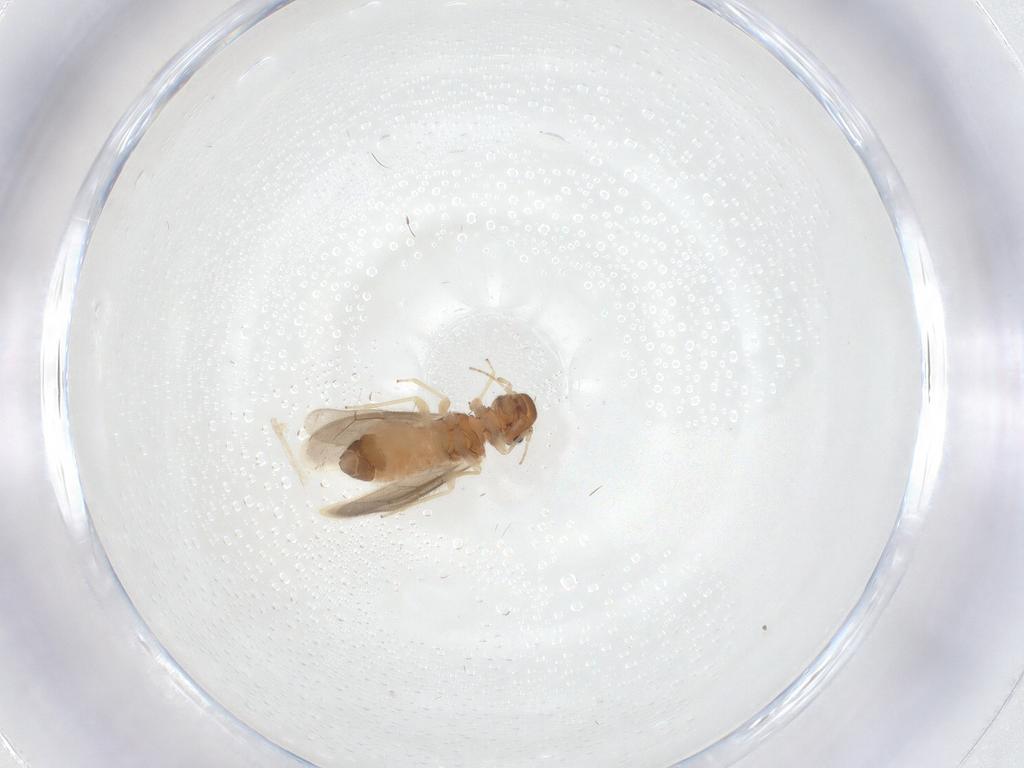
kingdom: Animalia
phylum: Arthropoda
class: Insecta
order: Psocodea
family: Archipsocidae
